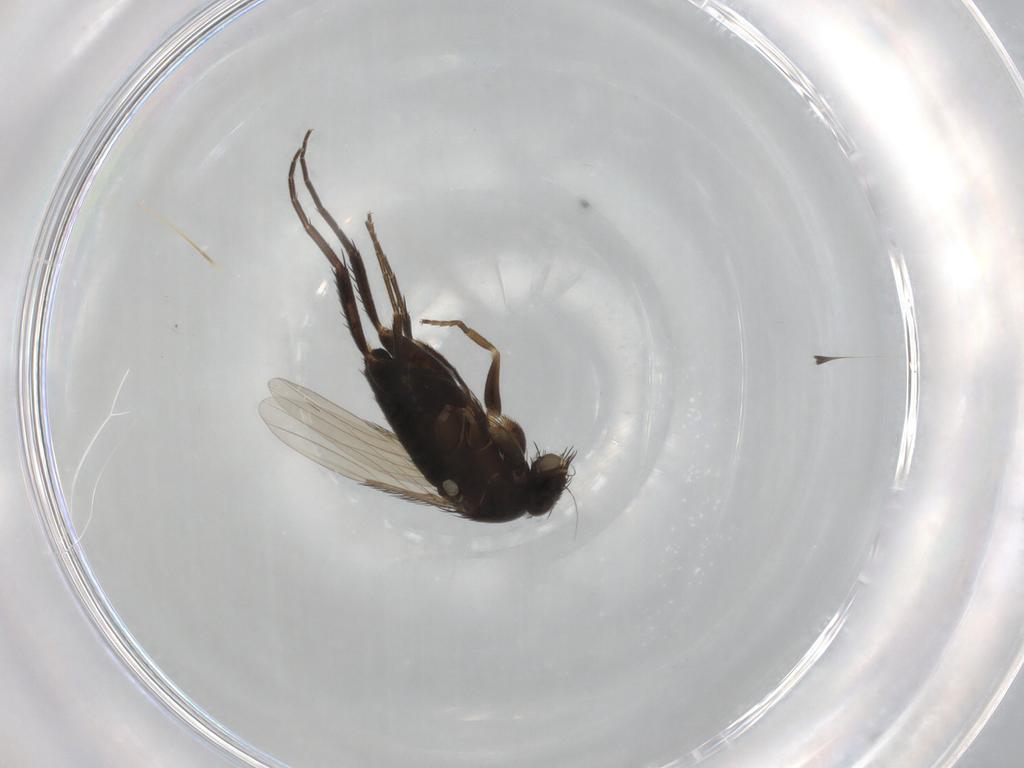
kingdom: Animalia
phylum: Arthropoda
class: Insecta
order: Diptera
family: Phoridae
